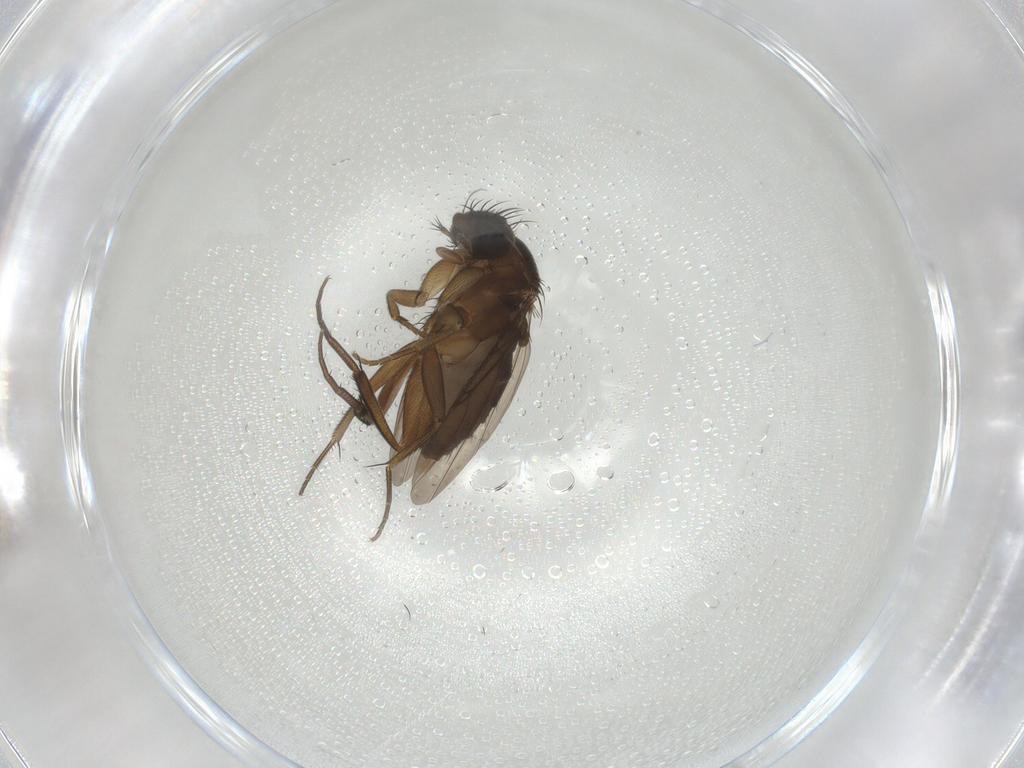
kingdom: Animalia
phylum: Arthropoda
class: Insecta
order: Diptera
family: Phoridae
